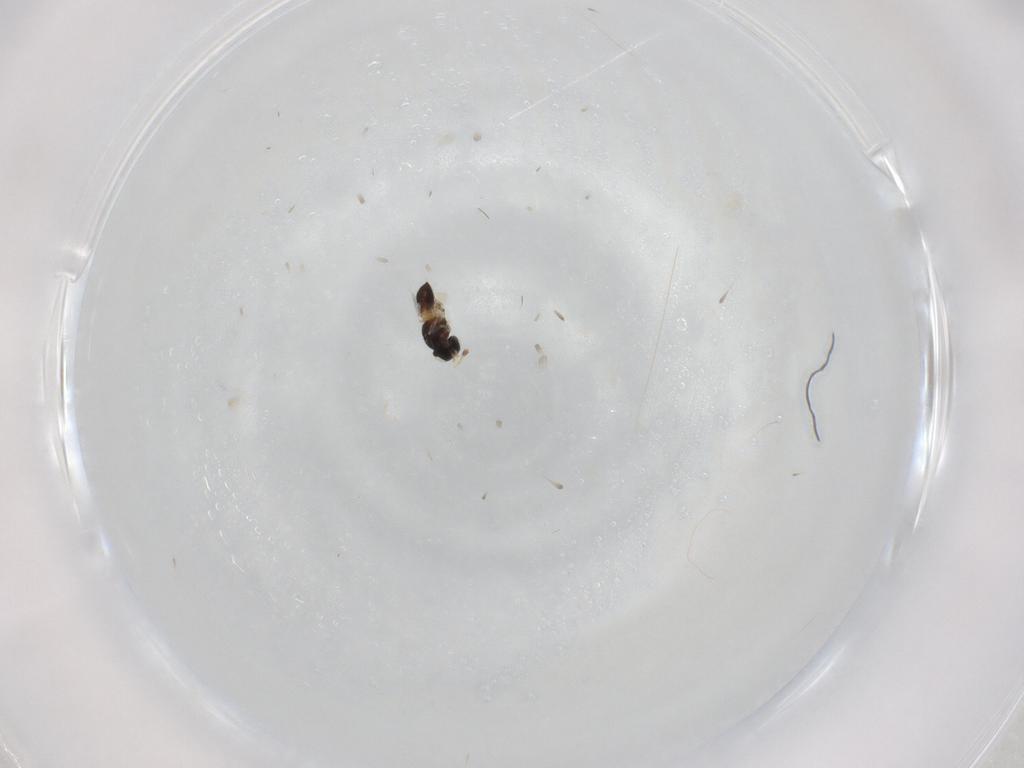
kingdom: Animalia
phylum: Arthropoda
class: Insecta
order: Hymenoptera
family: Scelionidae
